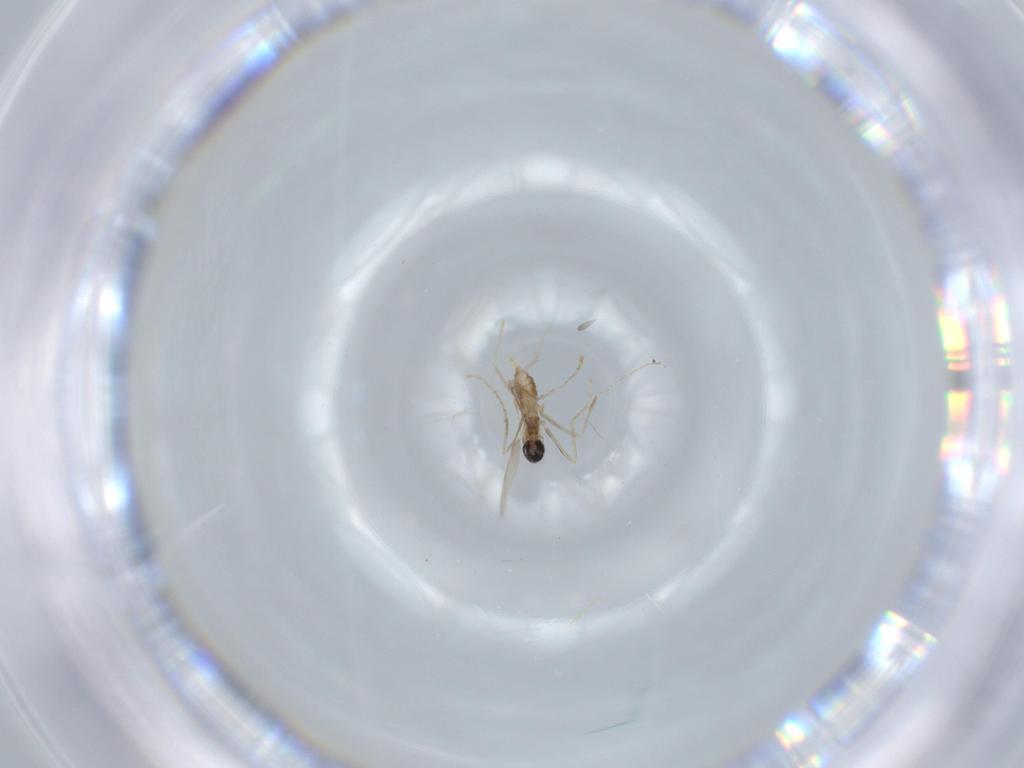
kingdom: Animalia
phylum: Arthropoda
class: Insecta
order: Diptera
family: Cecidomyiidae
